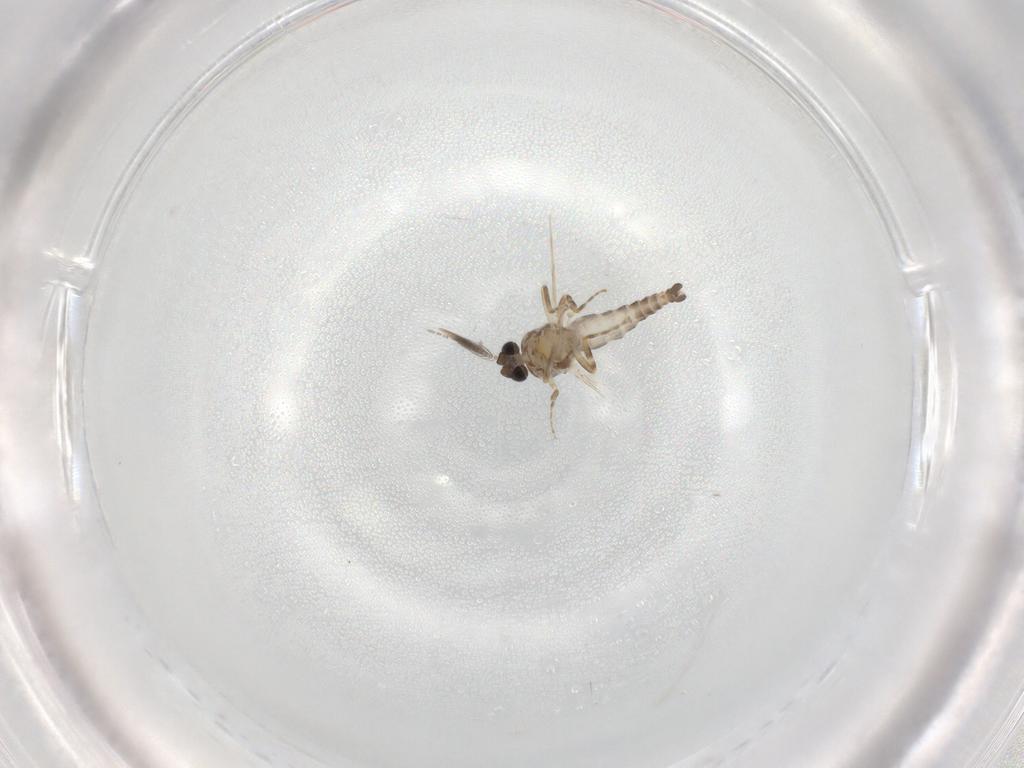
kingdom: Animalia
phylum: Arthropoda
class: Insecta
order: Diptera
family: Ceratopogonidae
